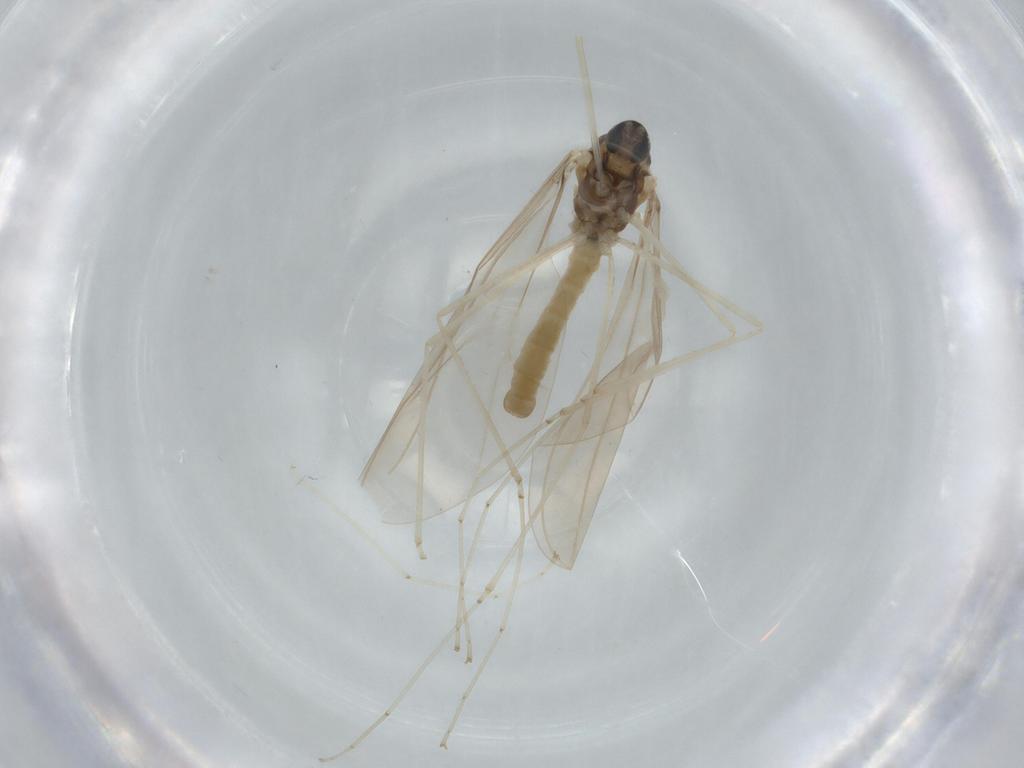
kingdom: Animalia
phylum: Arthropoda
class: Insecta
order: Diptera
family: Cecidomyiidae
